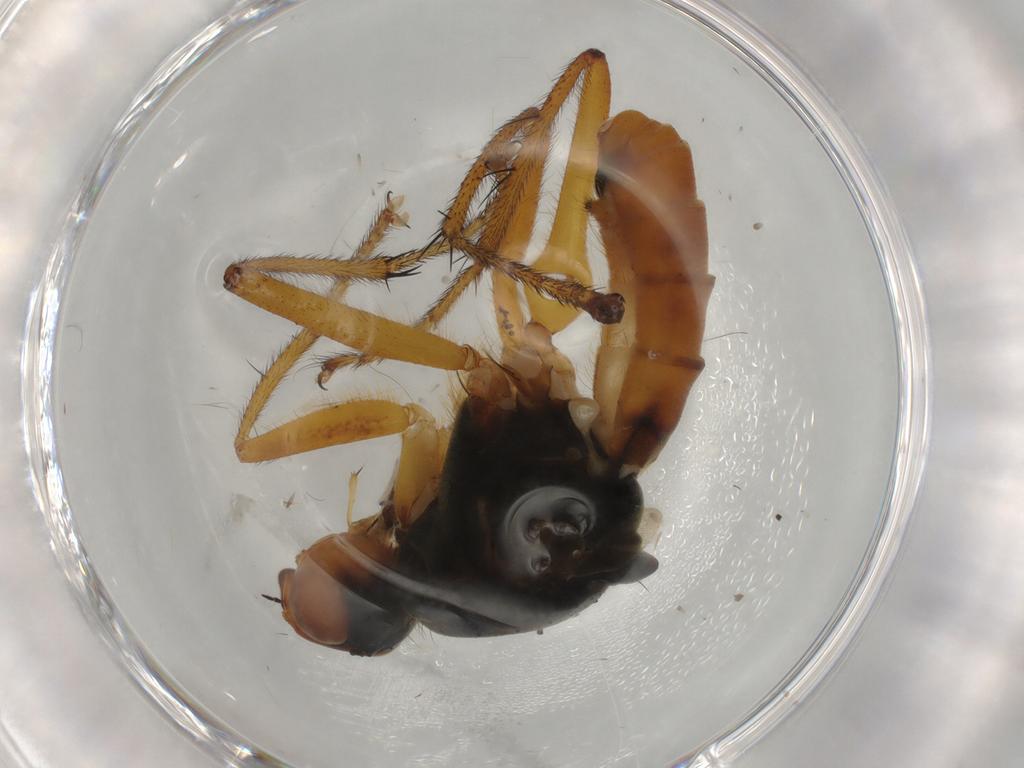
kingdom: Animalia
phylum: Arthropoda
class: Insecta
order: Diptera
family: Scathophagidae
